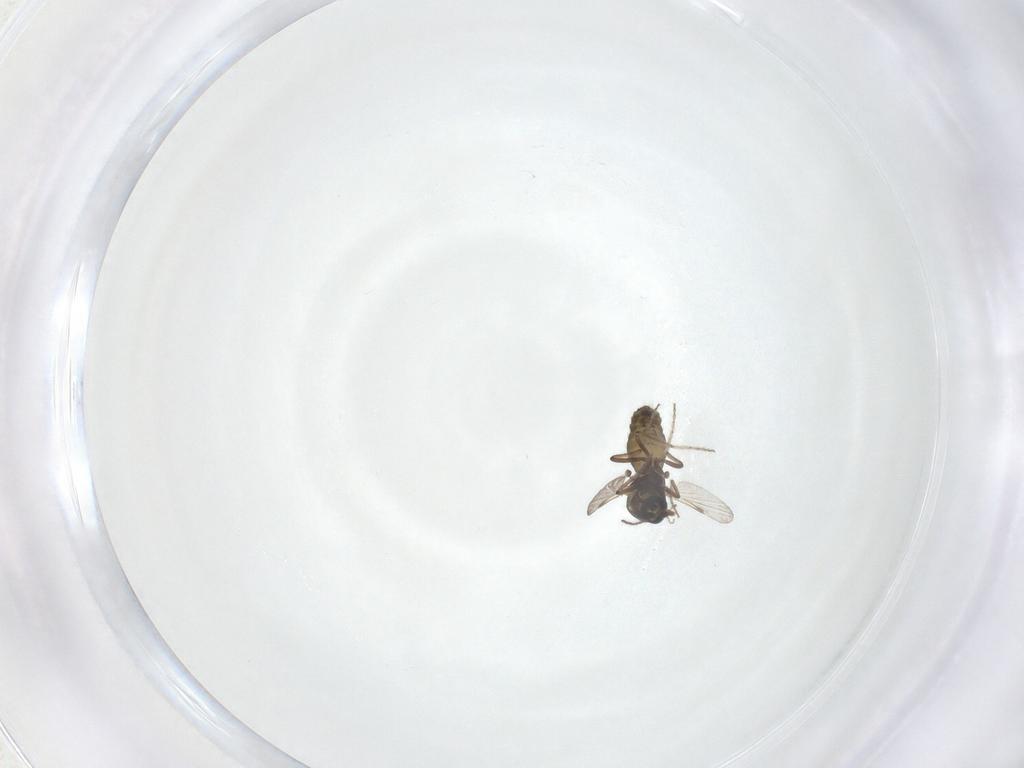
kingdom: Animalia
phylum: Arthropoda
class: Insecta
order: Diptera
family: Ceratopogonidae
